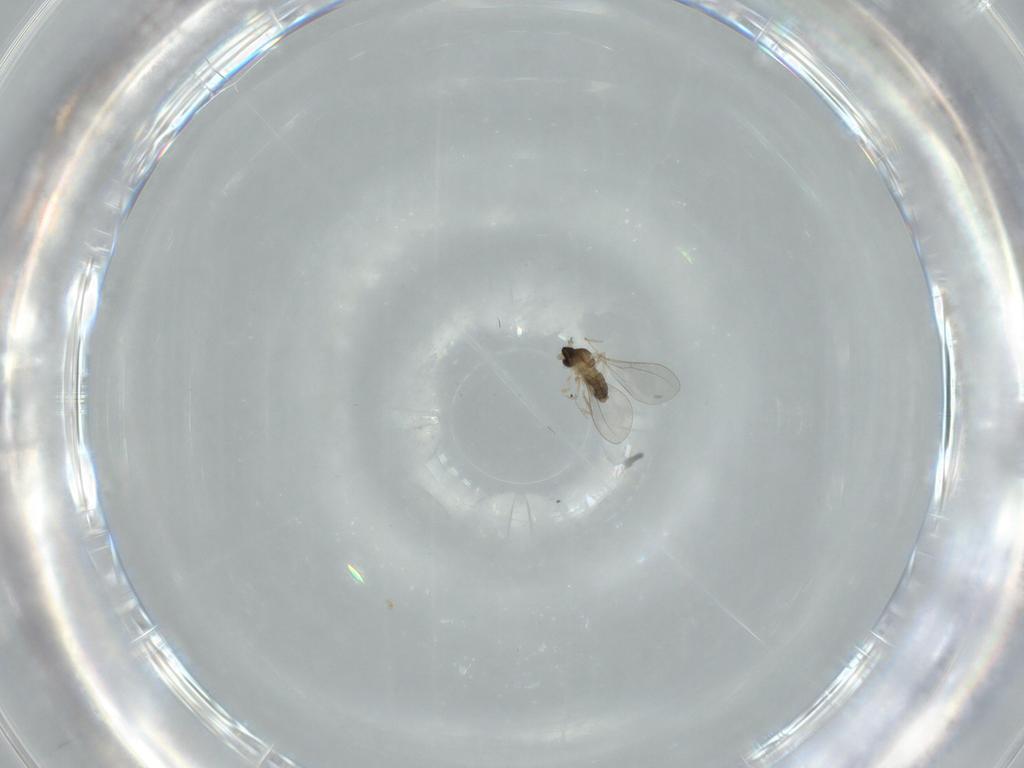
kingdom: Animalia
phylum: Arthropoda
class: Insecta
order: Diptera
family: Cecidomyiidae
